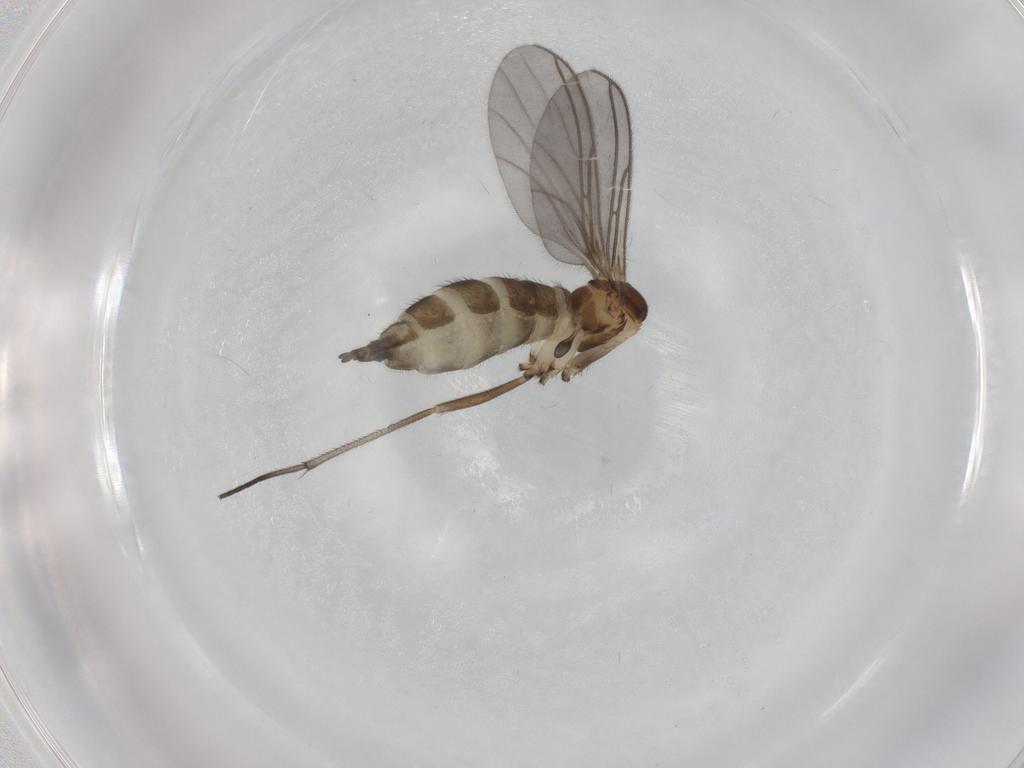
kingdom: Animalia
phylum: Arthropoda
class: Insecta
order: Diptera
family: Sciaridae
